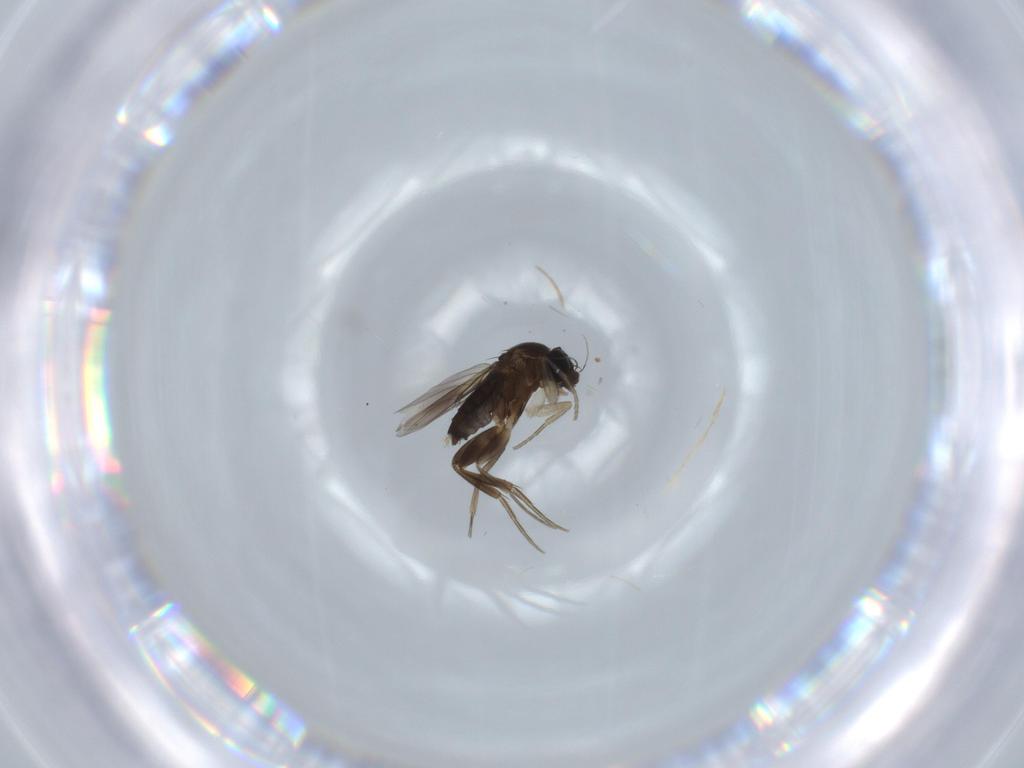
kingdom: Animalia
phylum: Arthropoda
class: Insecta
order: Diptera
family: Phoridae
